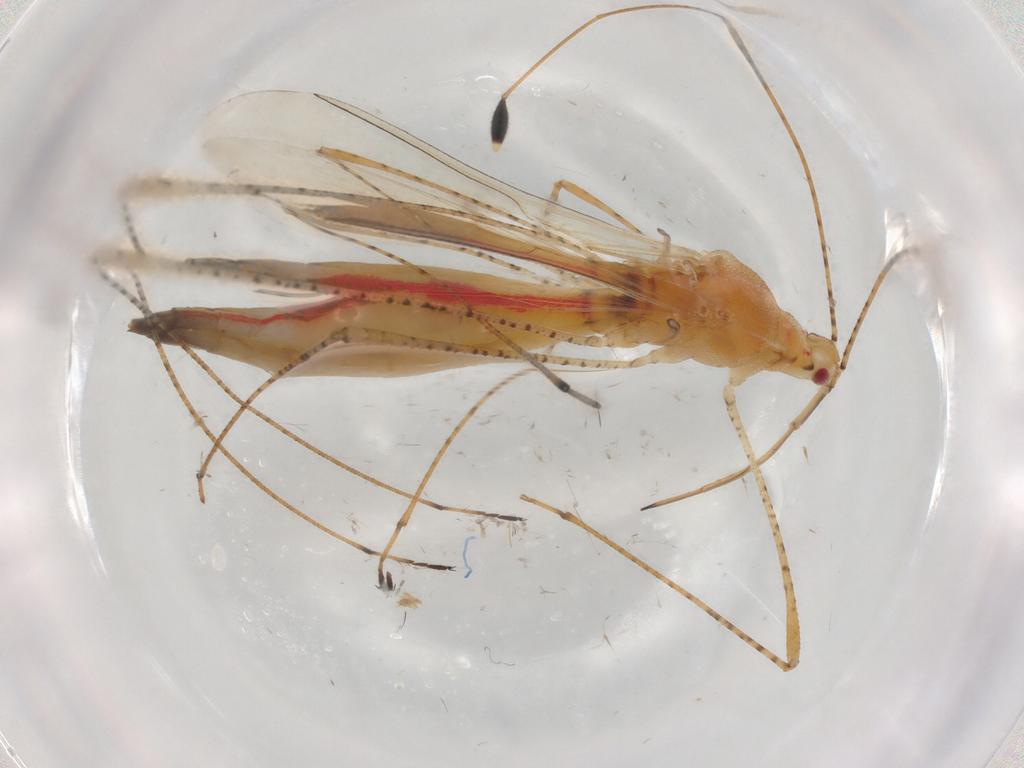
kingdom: Animalia
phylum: Arthropoda
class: Insecta
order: Hemiptera
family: Berytidae
